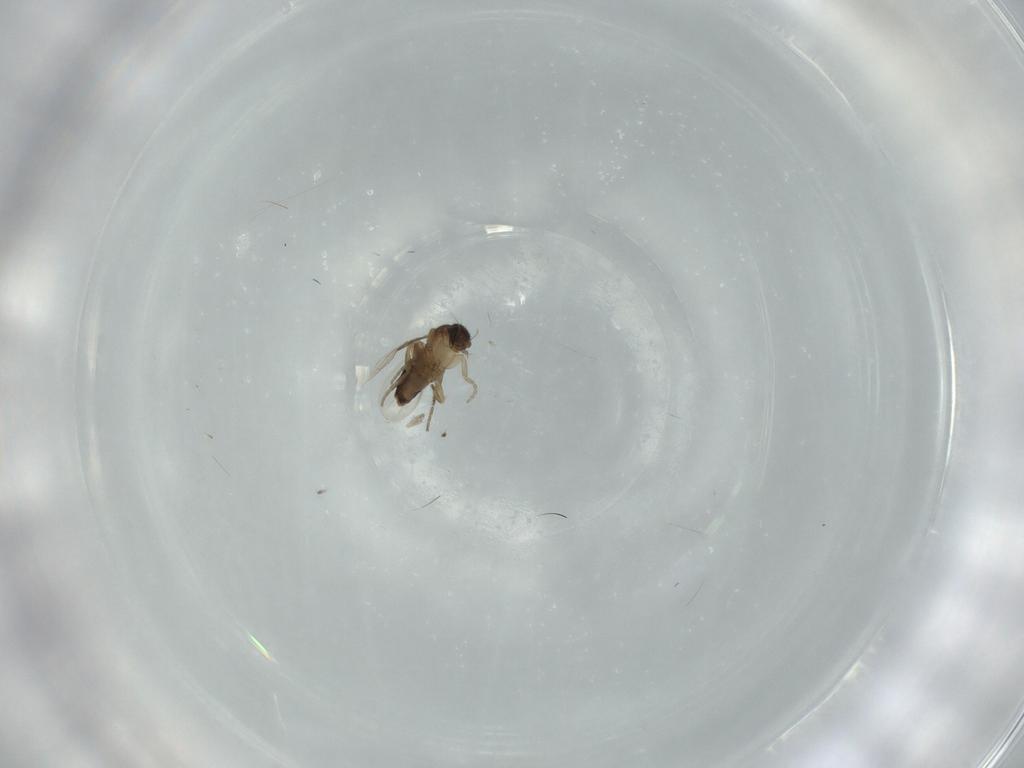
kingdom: Animalia
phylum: Arthropoda
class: Insecta
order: Diptera
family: Phoridae
